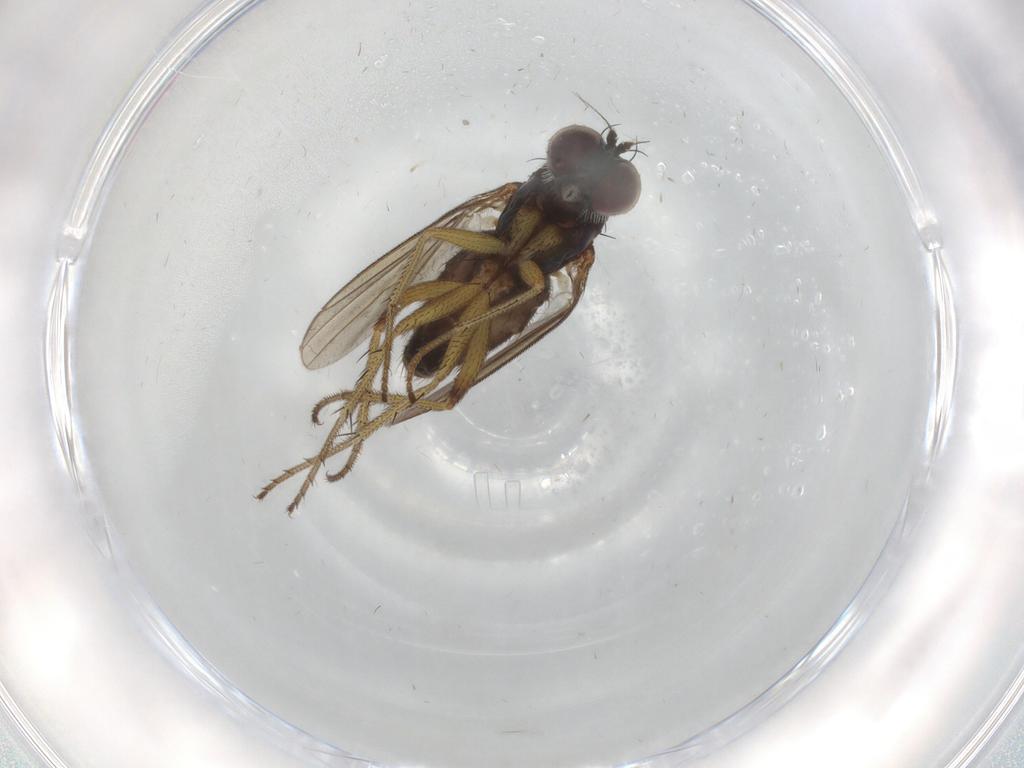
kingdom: Animalia
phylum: Arthropoda
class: Insecta
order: Diptera
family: Dolichopodidae
